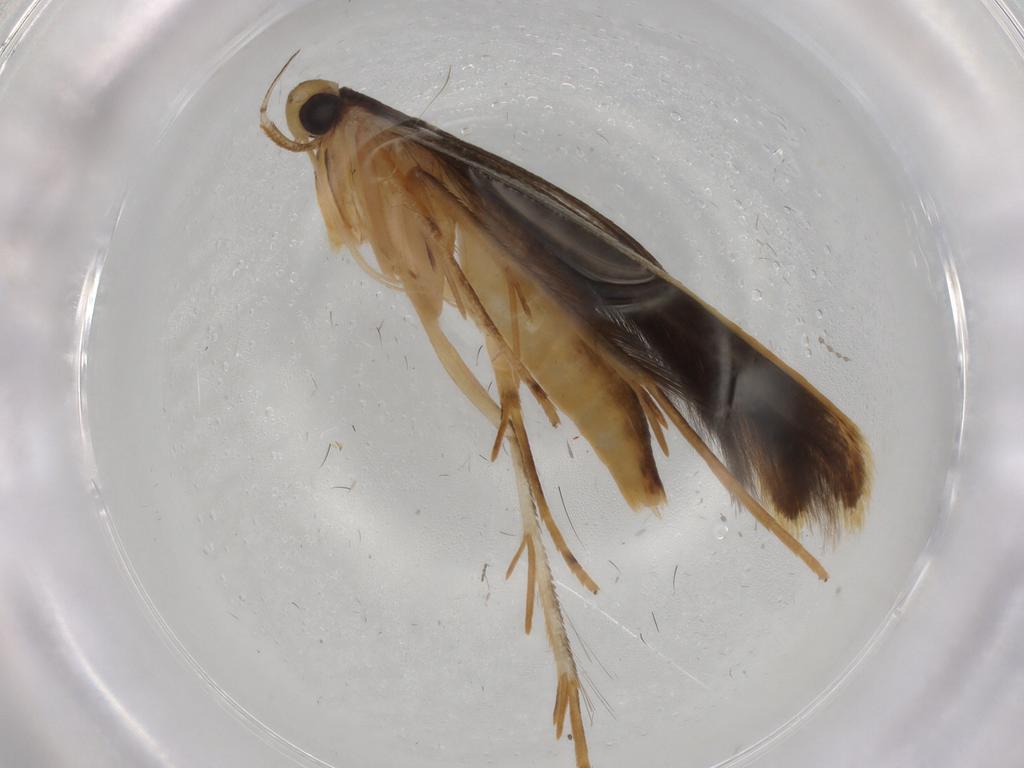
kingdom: Animalia
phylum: Arthropoda
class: Insecta
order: Lepidoptera
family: Pterolonchidae
